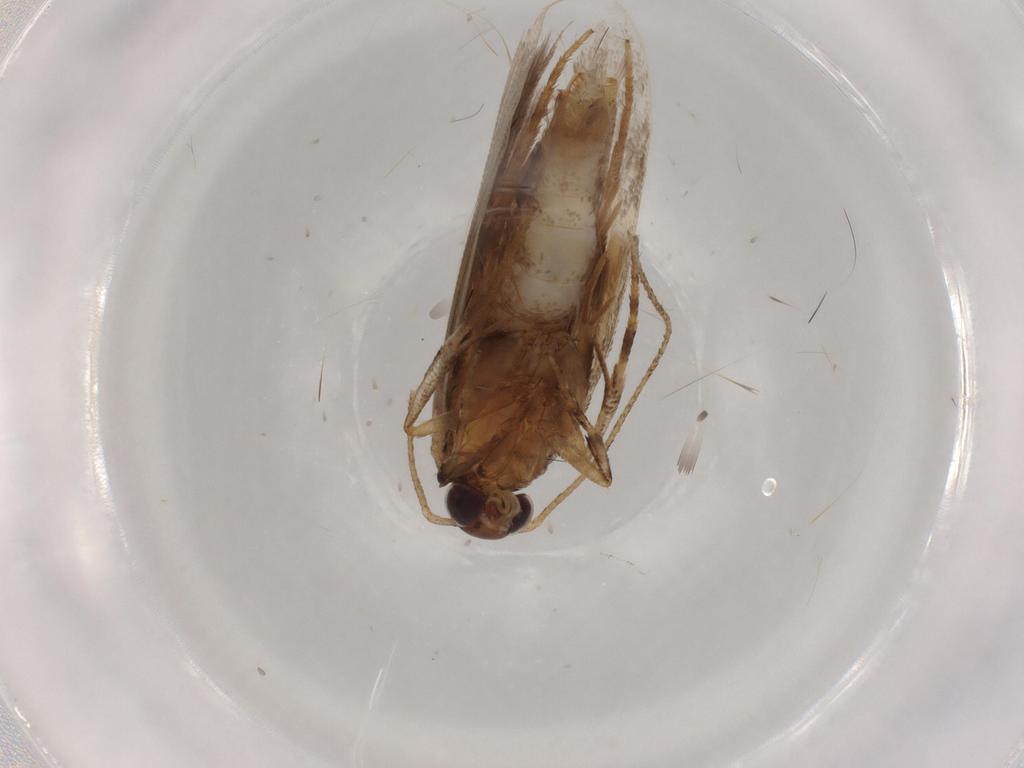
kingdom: Animalia
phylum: Arthropoda
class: Insecta
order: Lepidoptera
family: Gelechiidae
